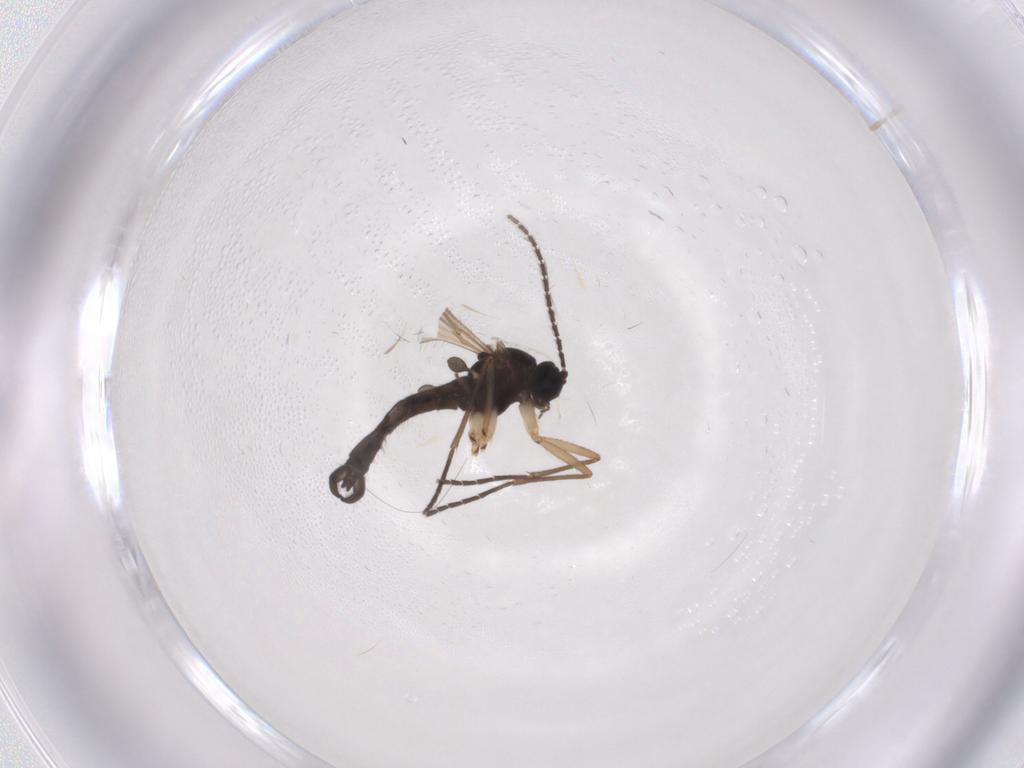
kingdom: Animalia
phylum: Arthropoda
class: Insecta
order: Diptera
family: Sciaridae
